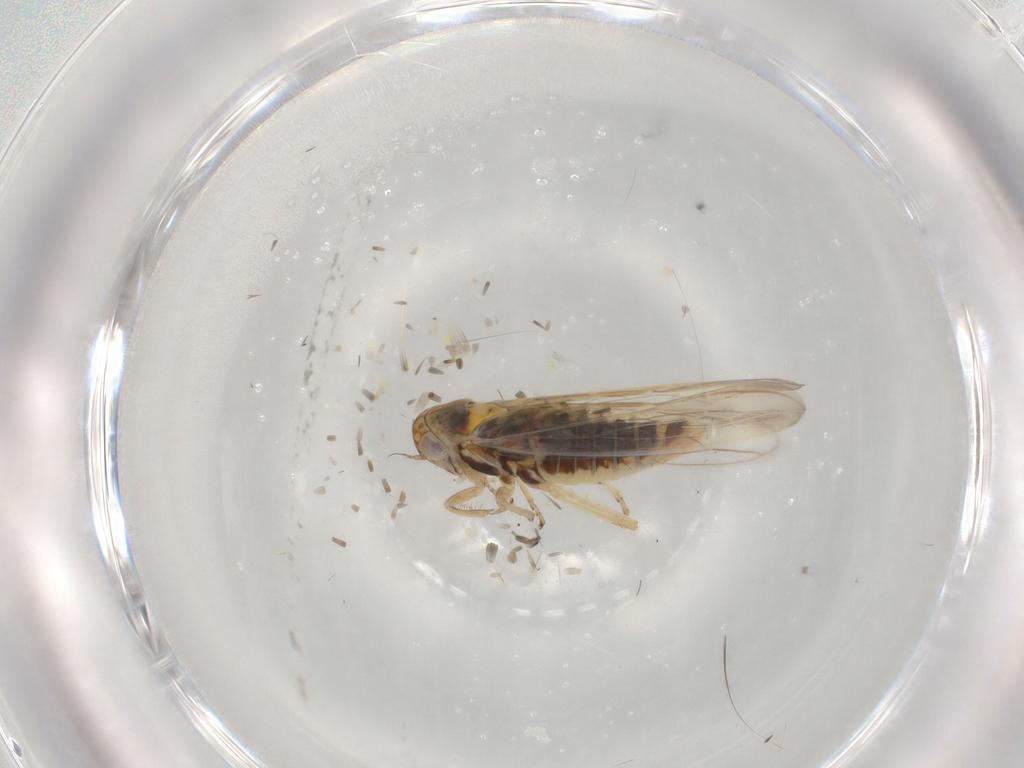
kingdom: Animalia
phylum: Arthropoda
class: Insecta
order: Hemiptera
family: Cicadellidae
